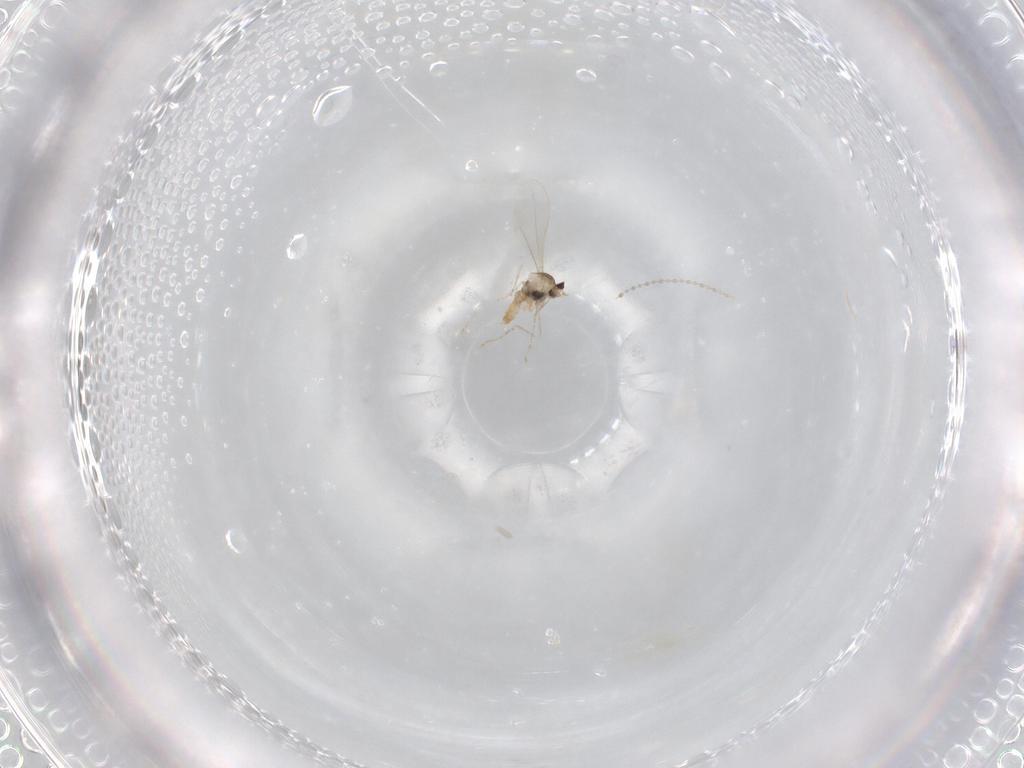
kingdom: Animalia
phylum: Arthropoda
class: Insecta
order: Diptera
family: Cecidomyiidae
